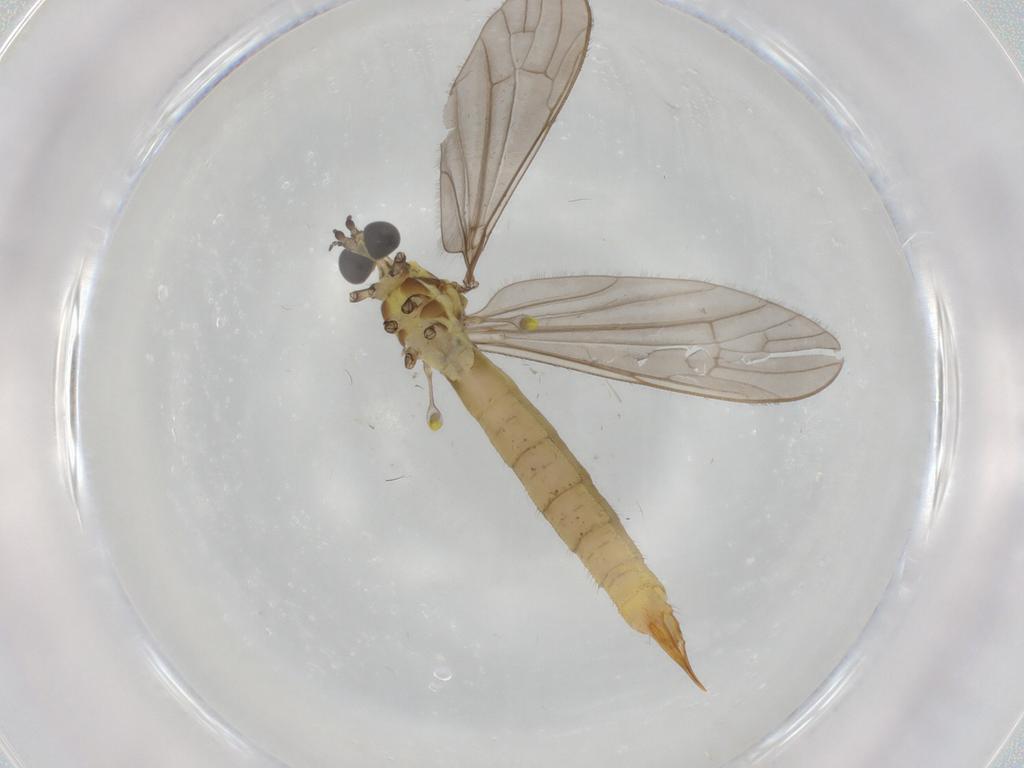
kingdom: Animalia
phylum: Arthropoda
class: Insecta
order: Diptera
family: Limoniidae
